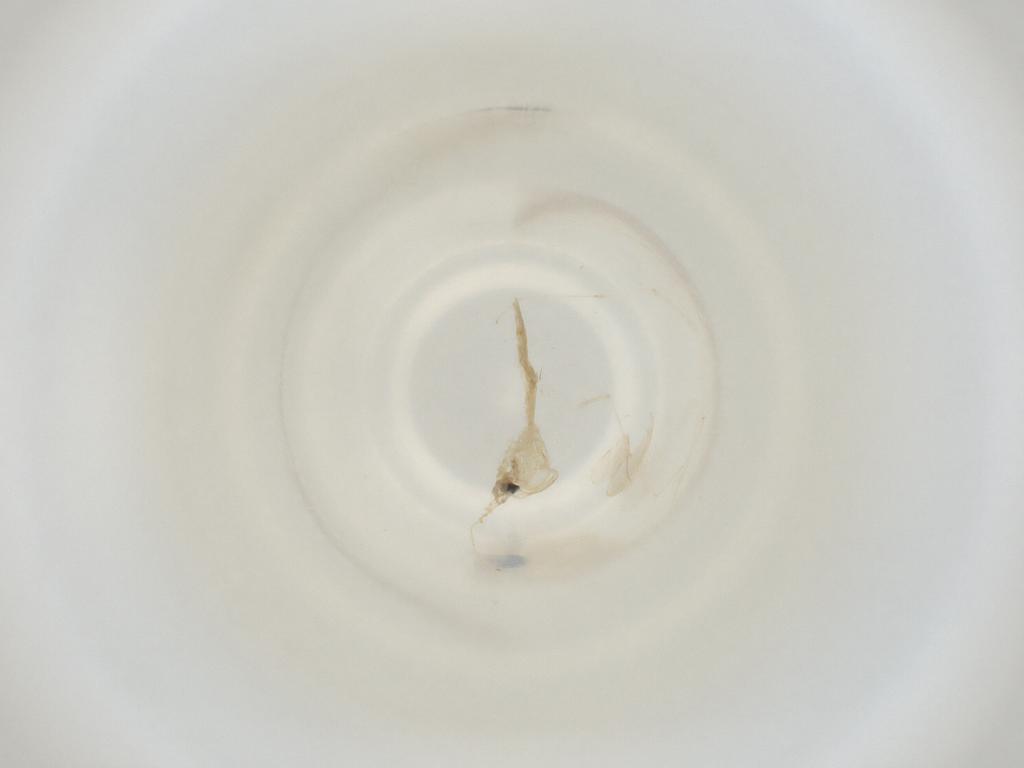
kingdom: Animalia
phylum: Arthropoda
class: Insecta
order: Diptera
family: Cecidomyiidae
